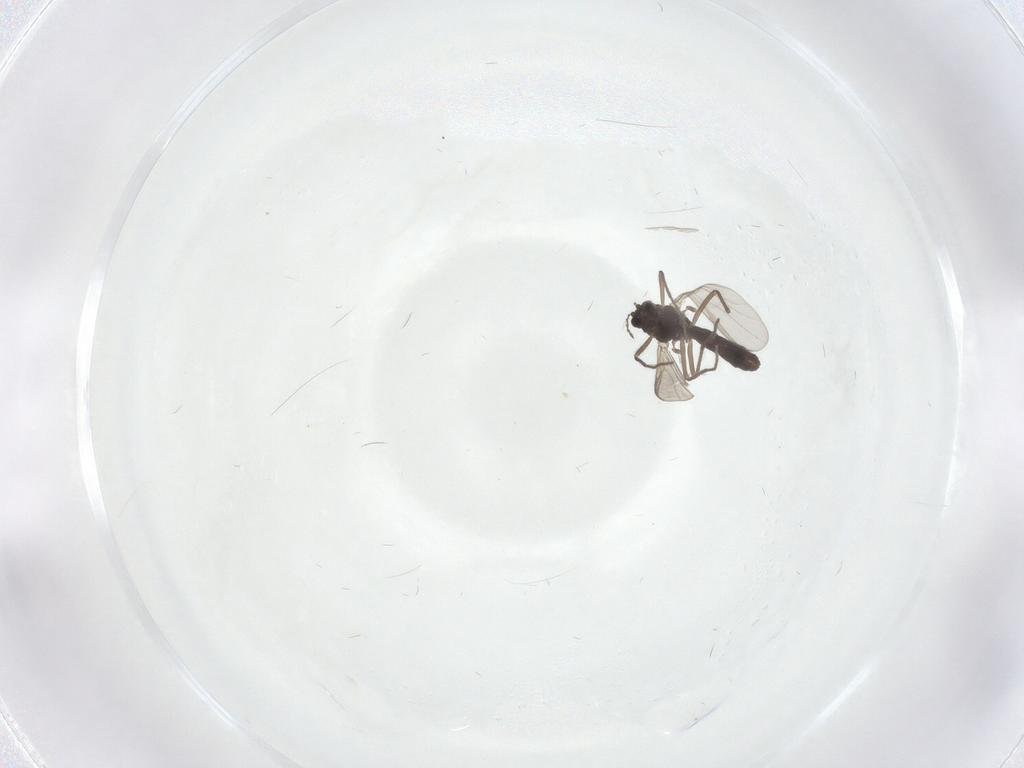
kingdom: Animalia
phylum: Arthropoda
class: Insecta
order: Diptera
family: Chironomidae
